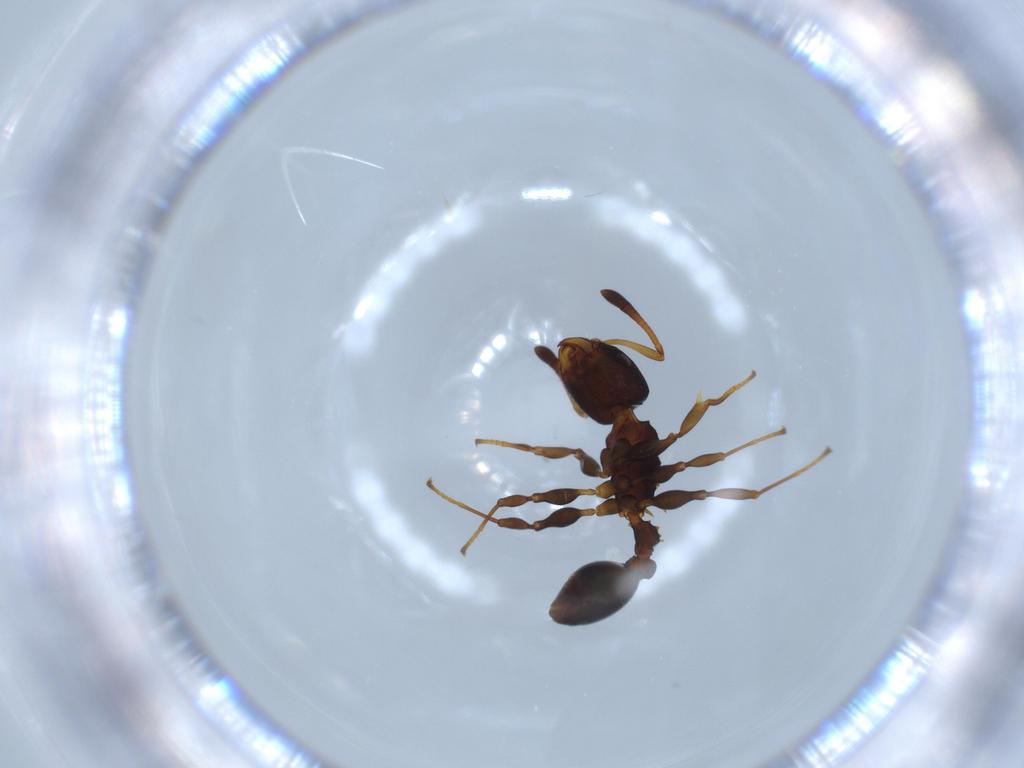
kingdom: Animalia
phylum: Arthropoda
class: Insecta
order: Hymenoptera
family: Formicidae
